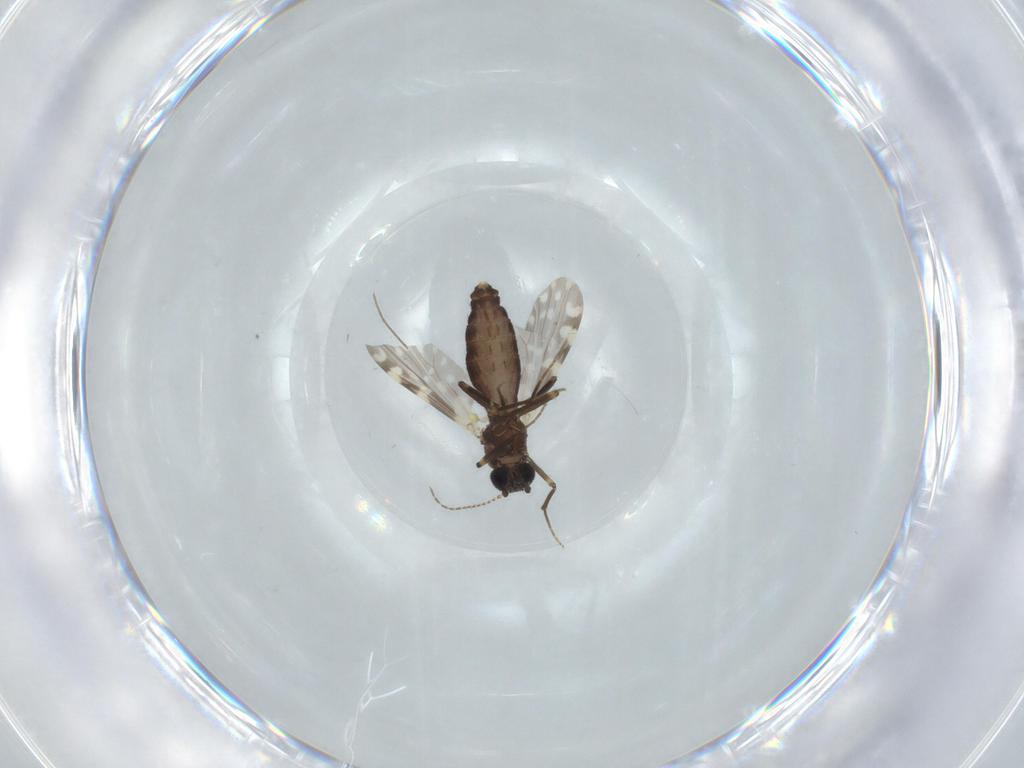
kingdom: Animalia
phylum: Arthropoda
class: Insecta
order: Diptera
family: Ceratopogonidae
